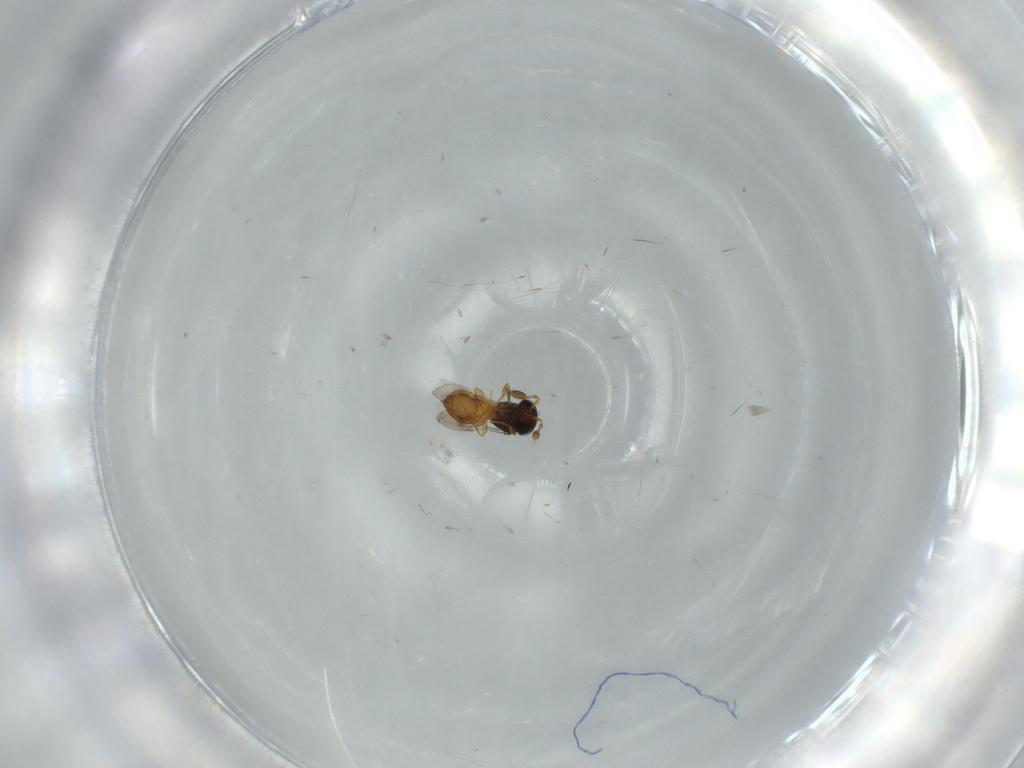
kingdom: Animalia
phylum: Arthropoda
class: Insecta
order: Hymenoptera
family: Scelionidae
